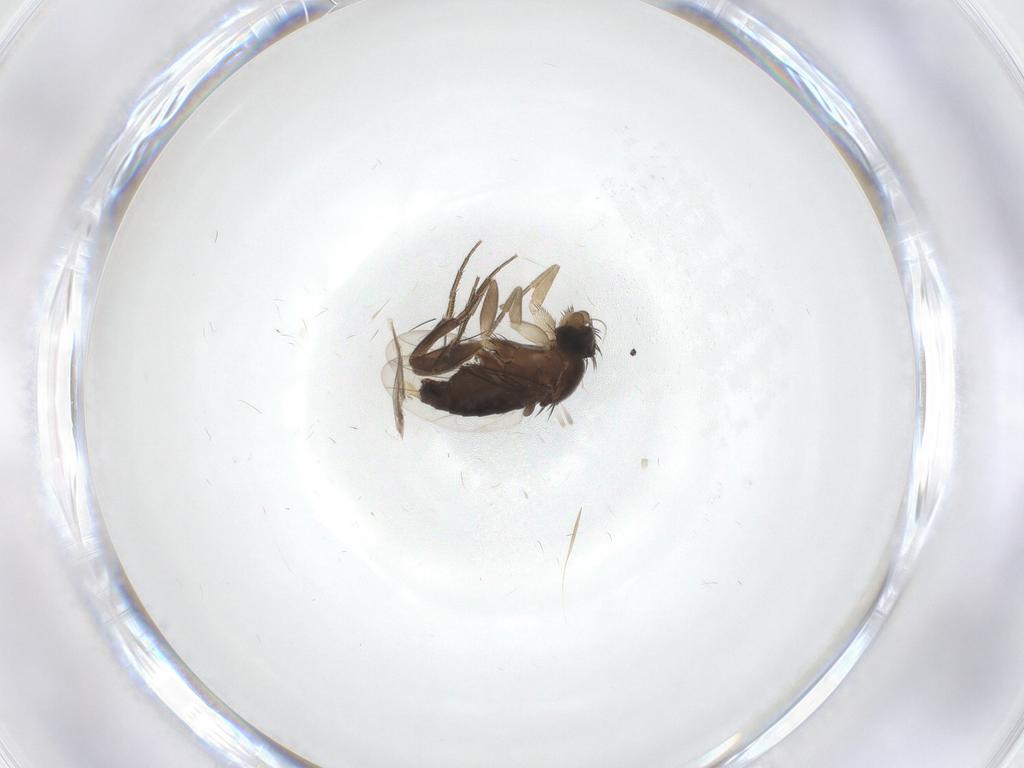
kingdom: Animalia
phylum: Arthropoda
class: Insecta
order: Diptera
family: Phoridae
